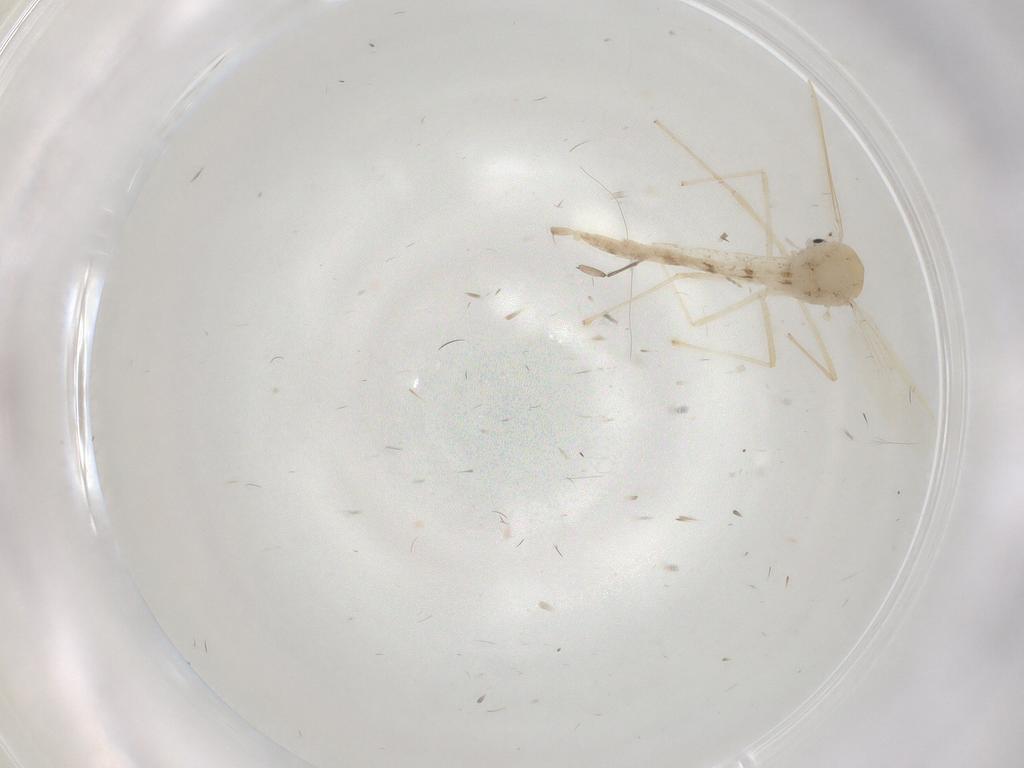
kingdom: Animalia
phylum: Arthropoda
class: Insecta
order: Diptera
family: Chironomidae
